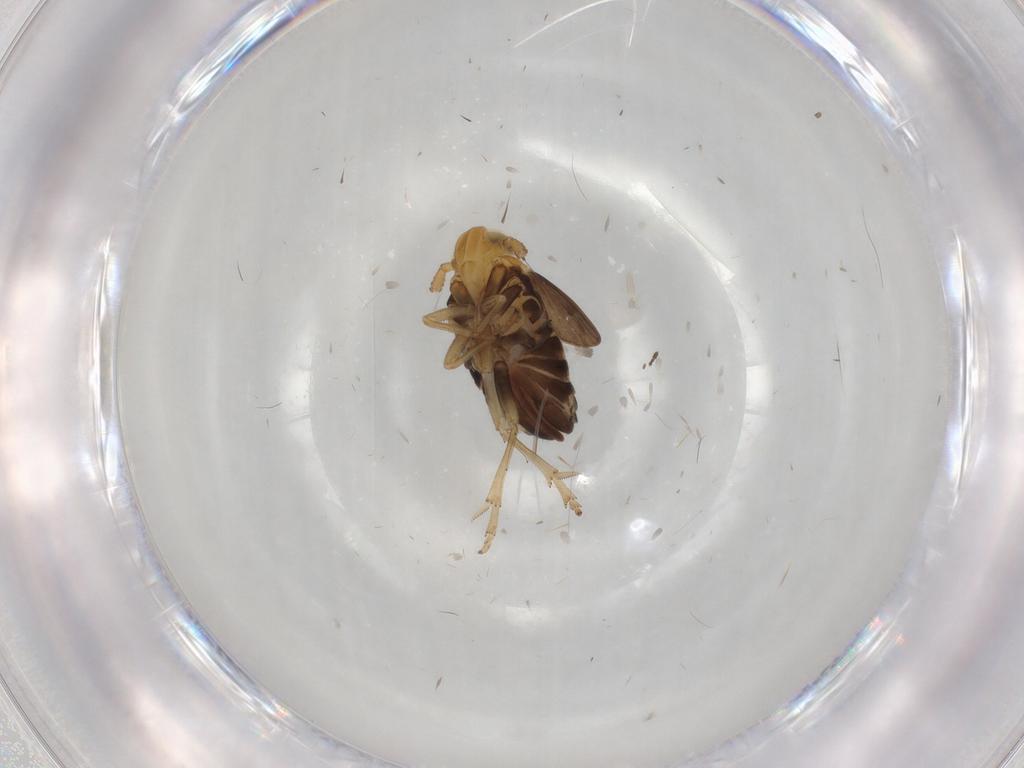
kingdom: Animalia
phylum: Arthropoda
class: Insecta
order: Hemiptera
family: Delphacidae
